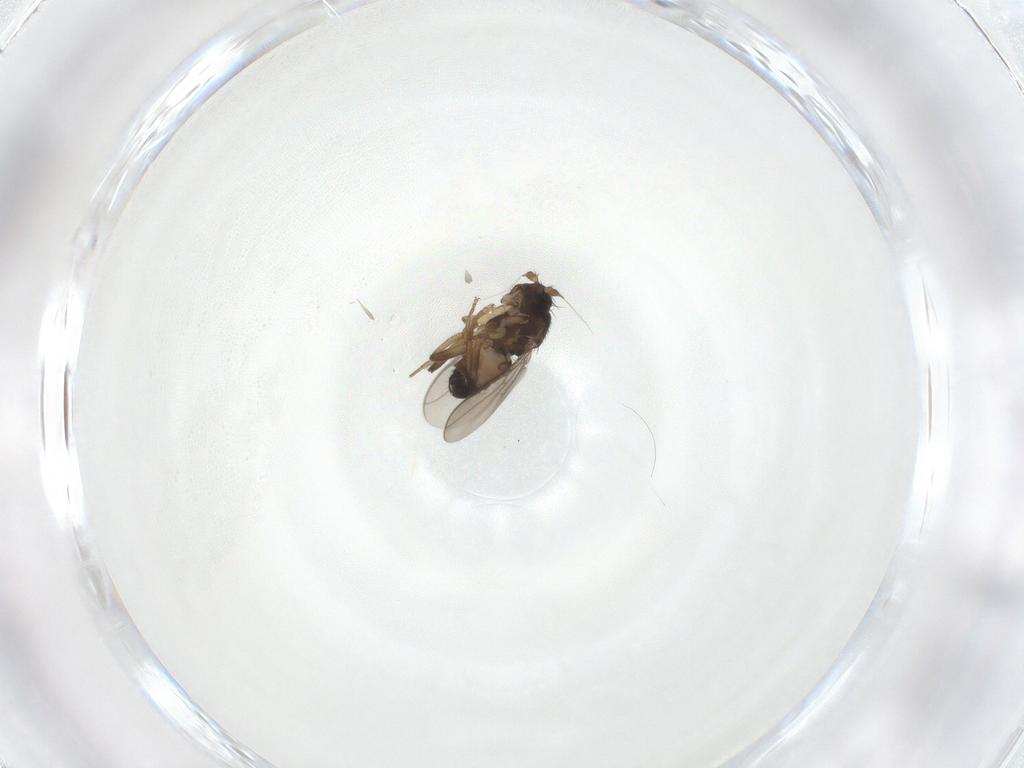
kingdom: Animalia
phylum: Arthropoda
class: Insecta
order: Diptera
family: Sphaeroceridae
